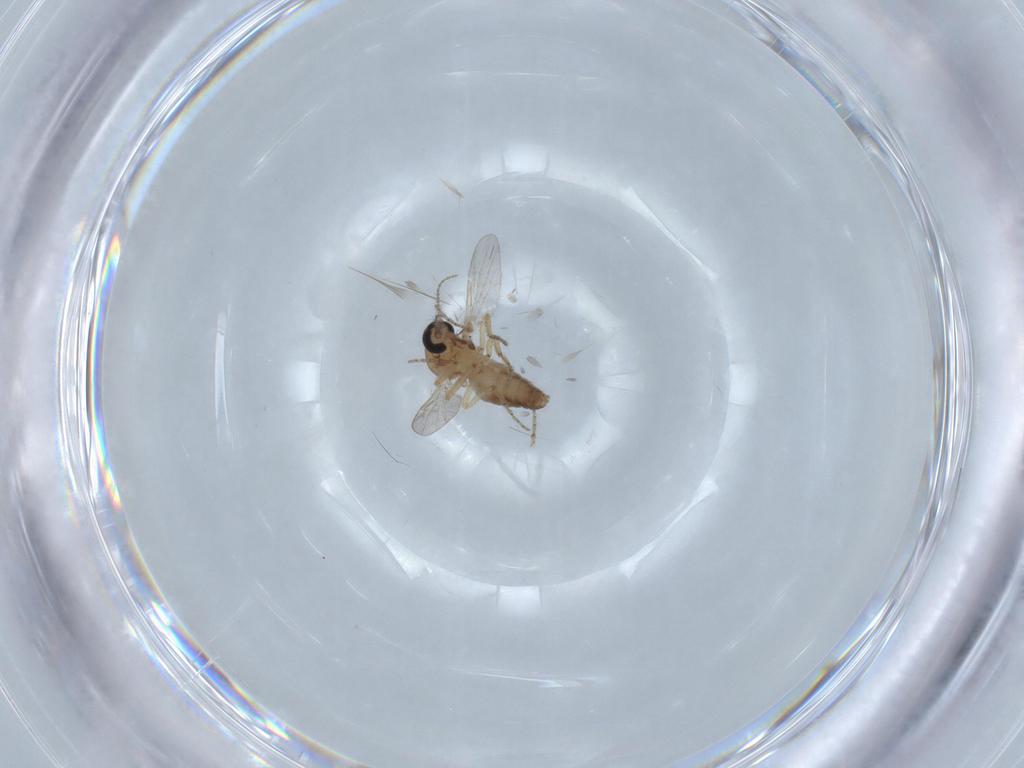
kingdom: Animalia
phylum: Arthropoda
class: Insecta
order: Diptera
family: Ceratopogonidae
